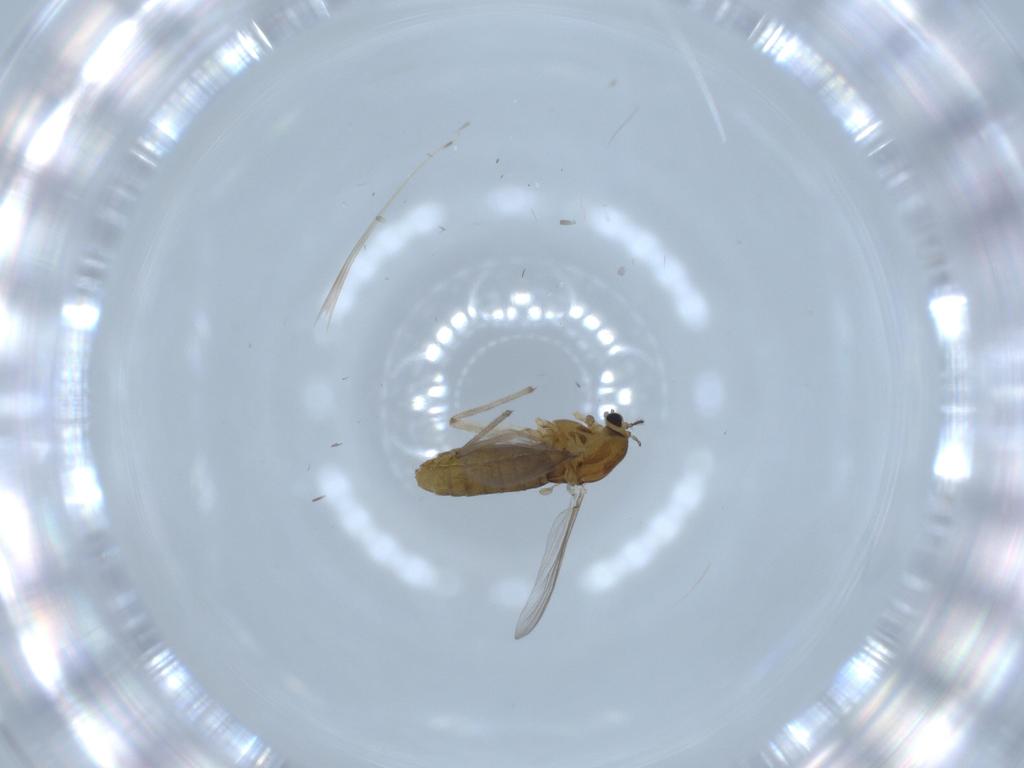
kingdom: Animalia
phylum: Arthropoda
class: Insecta
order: Diptera
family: Chironomidae
